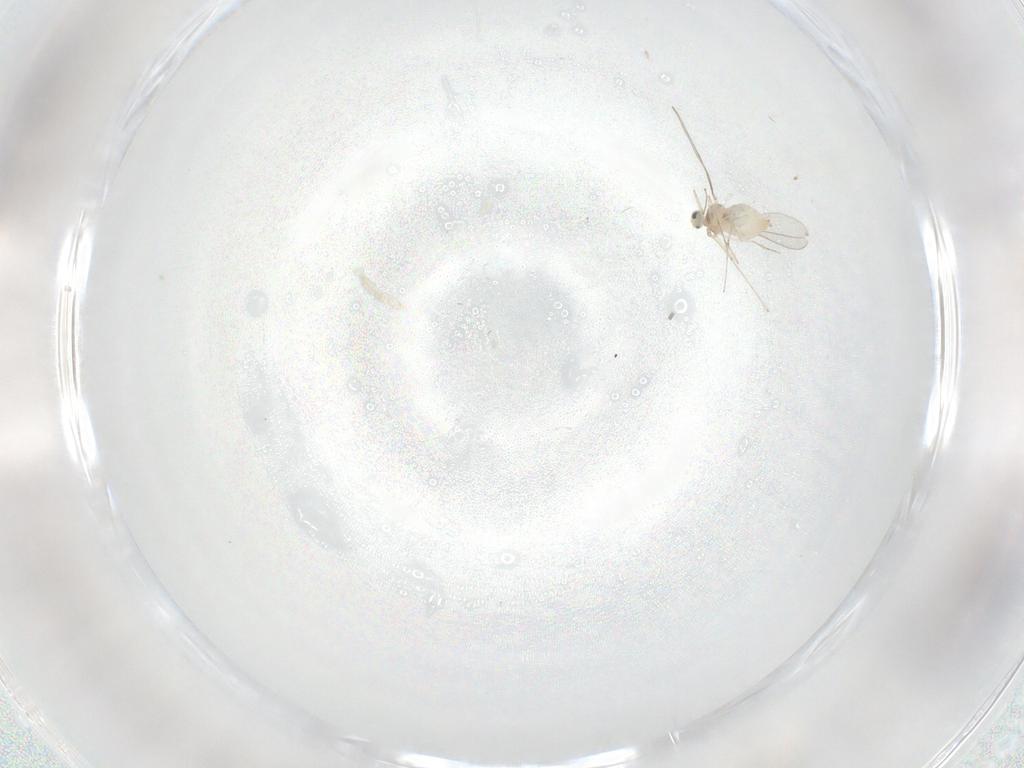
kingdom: Animalia
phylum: Arthropoda
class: Insecta
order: Diptera
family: Cecidomyiidae
